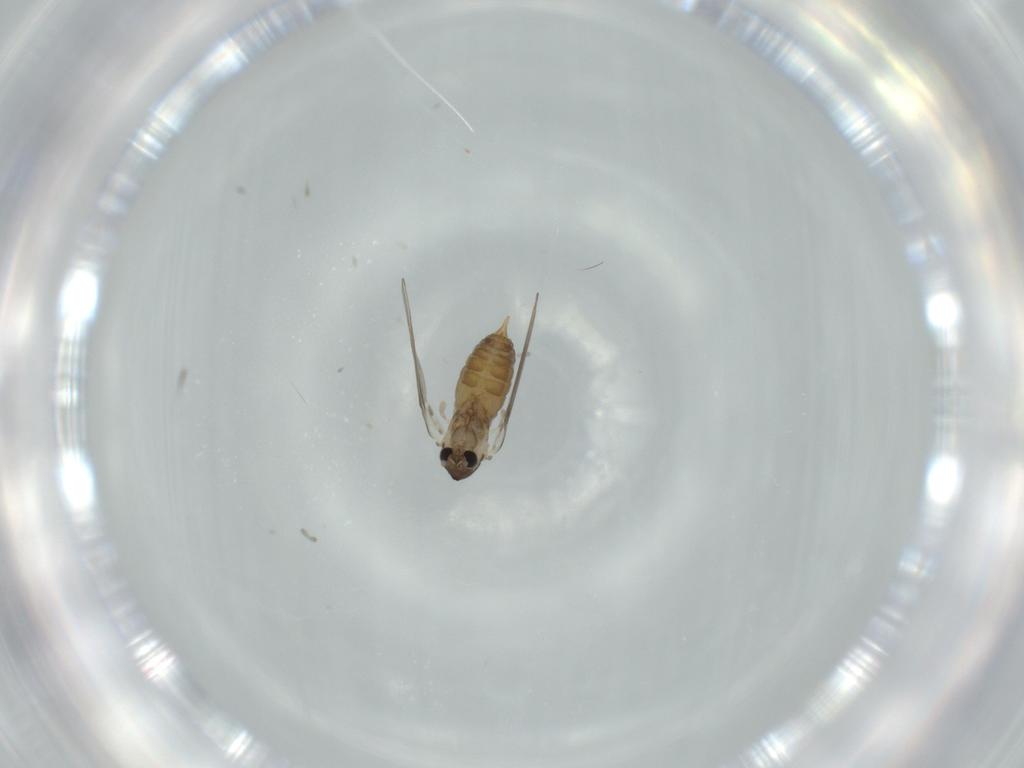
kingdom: Animalia
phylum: Arthropoda
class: Insecta
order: Diptera
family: Psychodidae
